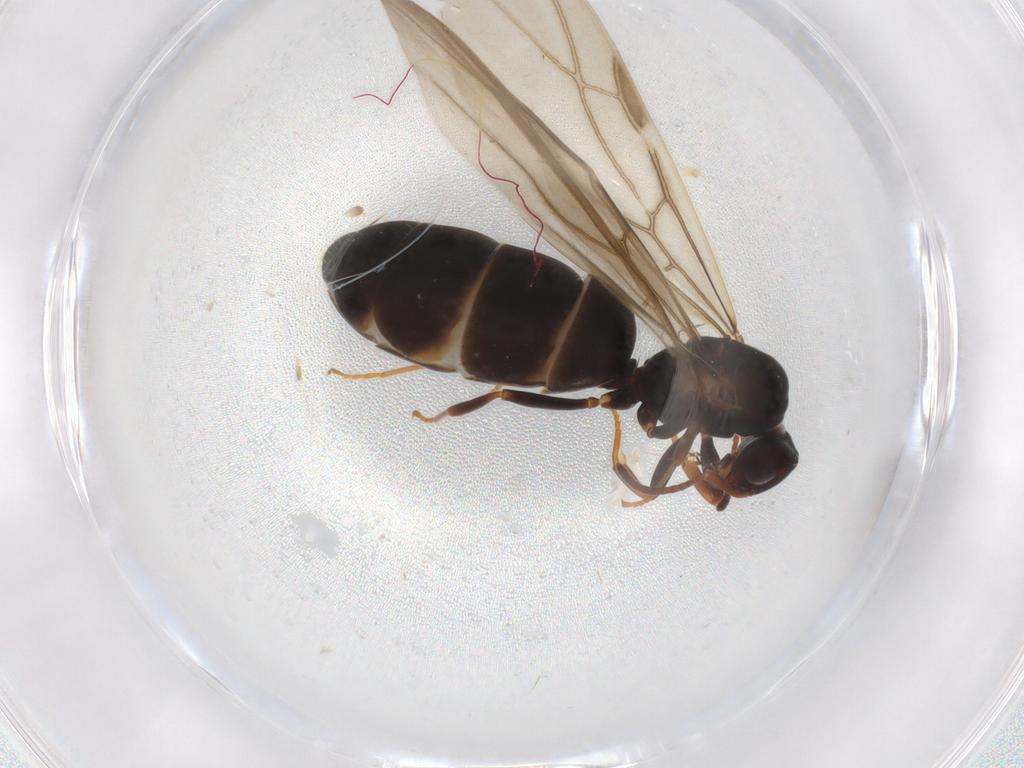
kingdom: Animalia
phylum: Arthropoda
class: Insecta
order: Hymenoptera
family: Formicidae
